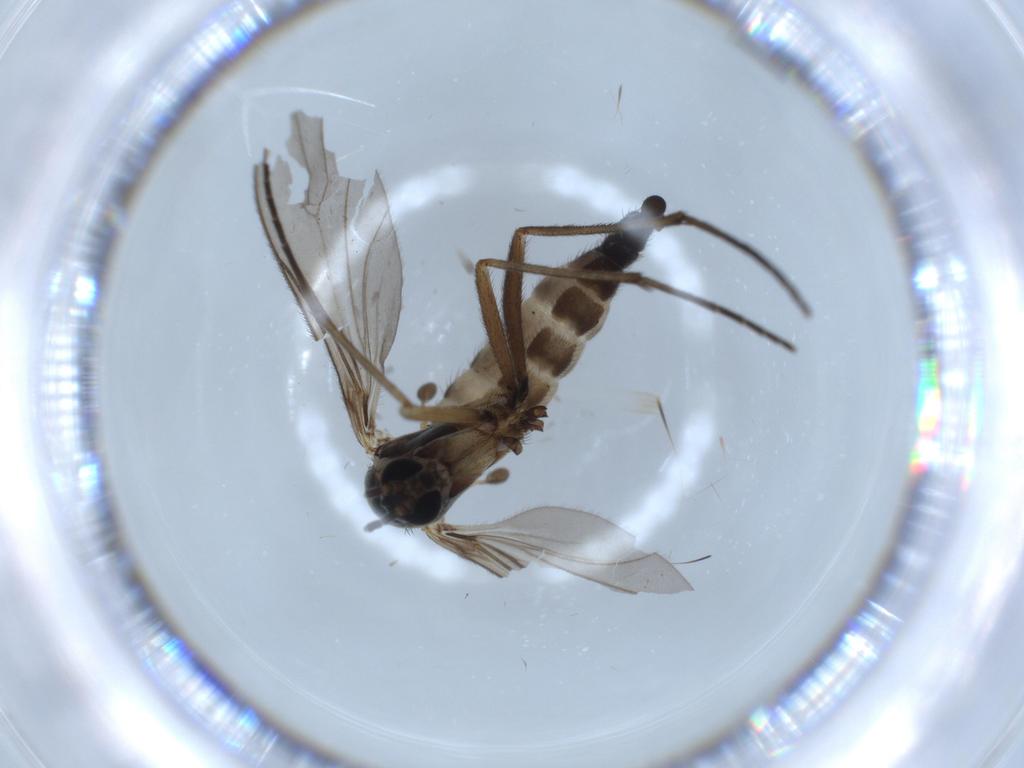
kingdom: Animalia
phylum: Arthropoda
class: Insecta
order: Diptera
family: Sciaridae
